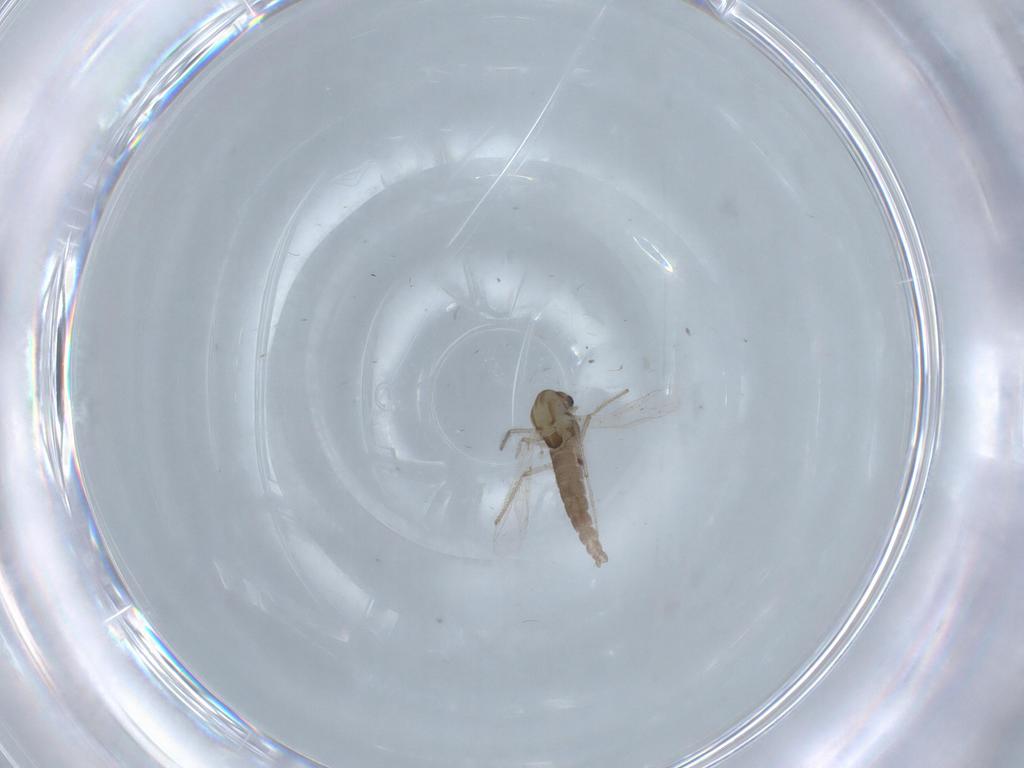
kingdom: Animalia
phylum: Arthropoda
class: Insecta
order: Diptera
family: Chironomidae
